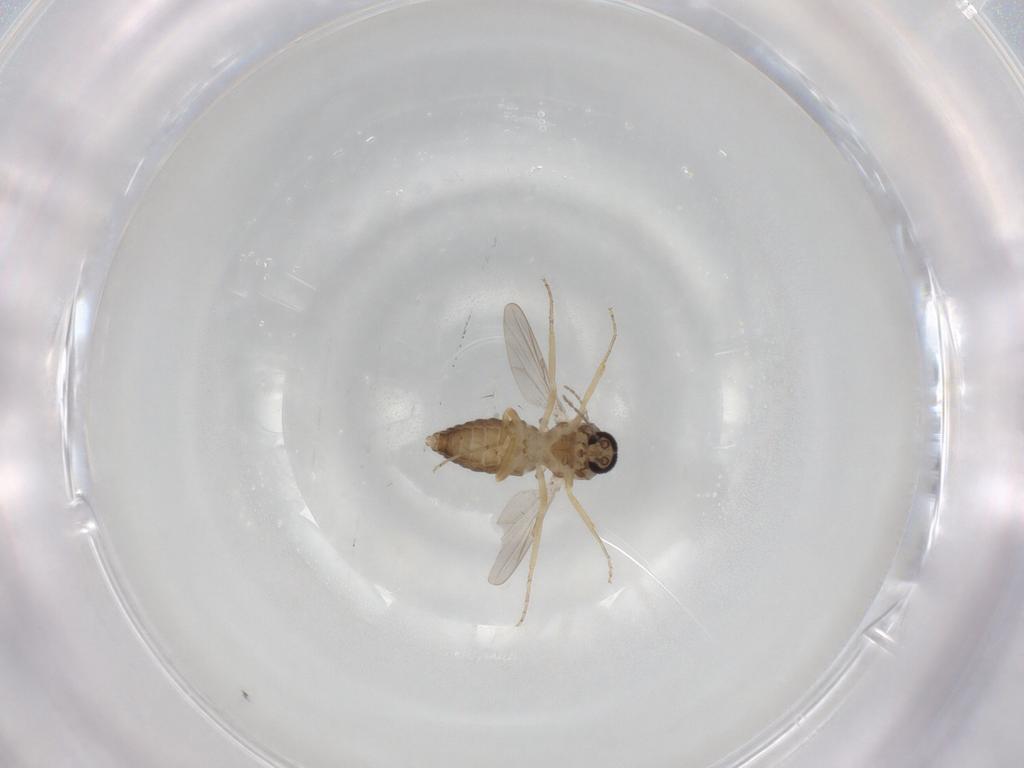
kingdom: Animalia
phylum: Arthropoda
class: Insecta
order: Diptera
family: Ceratopogonidae
